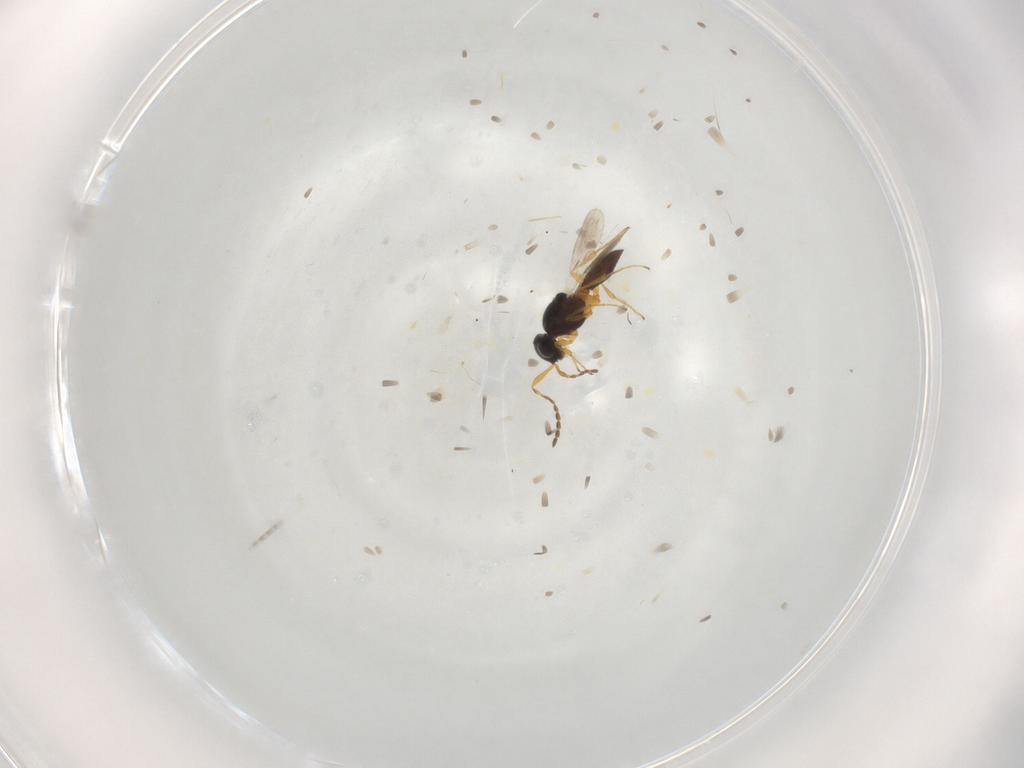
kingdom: Animalia
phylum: Arthropoda
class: Insecta
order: Hymenoptera
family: Platygastridae
